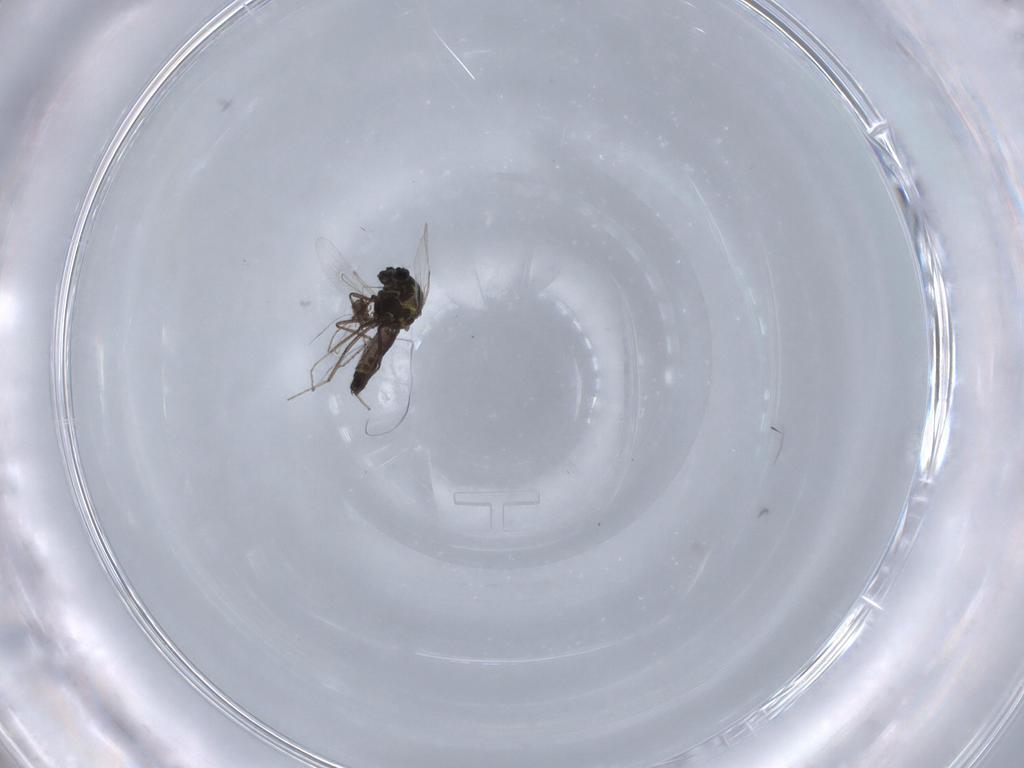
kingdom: Animalia
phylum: Arthropoda
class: Insecta
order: Diptera
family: Ceratopogonidae
